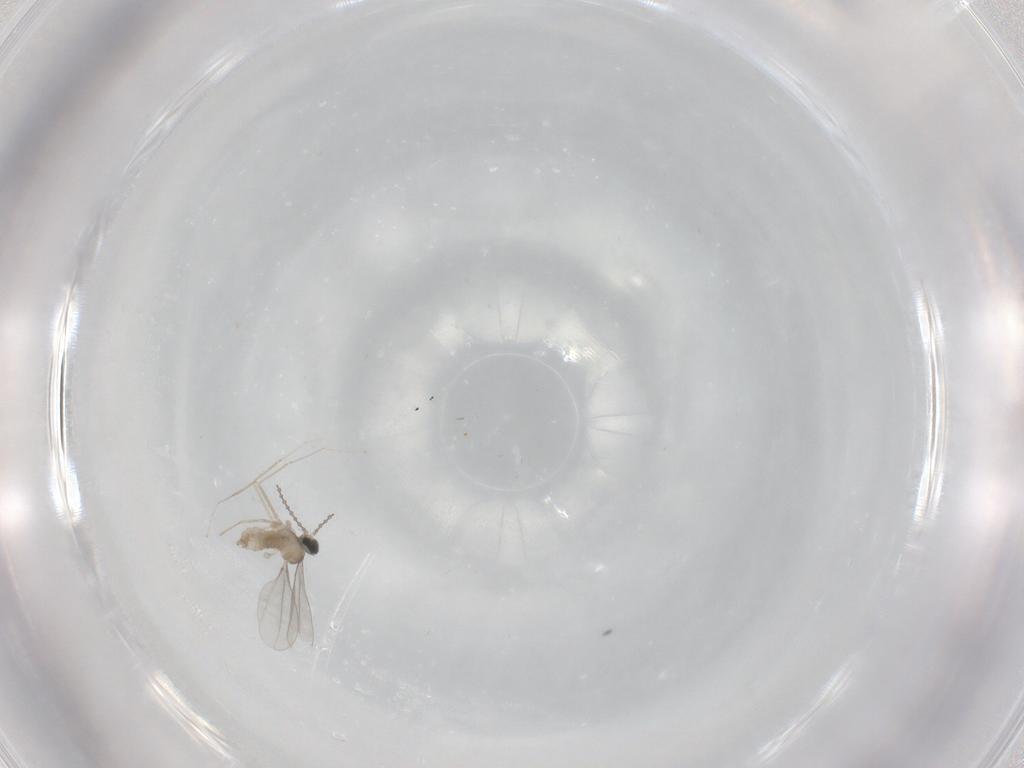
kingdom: Animalia
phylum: Arthropoda
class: Insecta
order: Diptera
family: Cecidomyiidae
